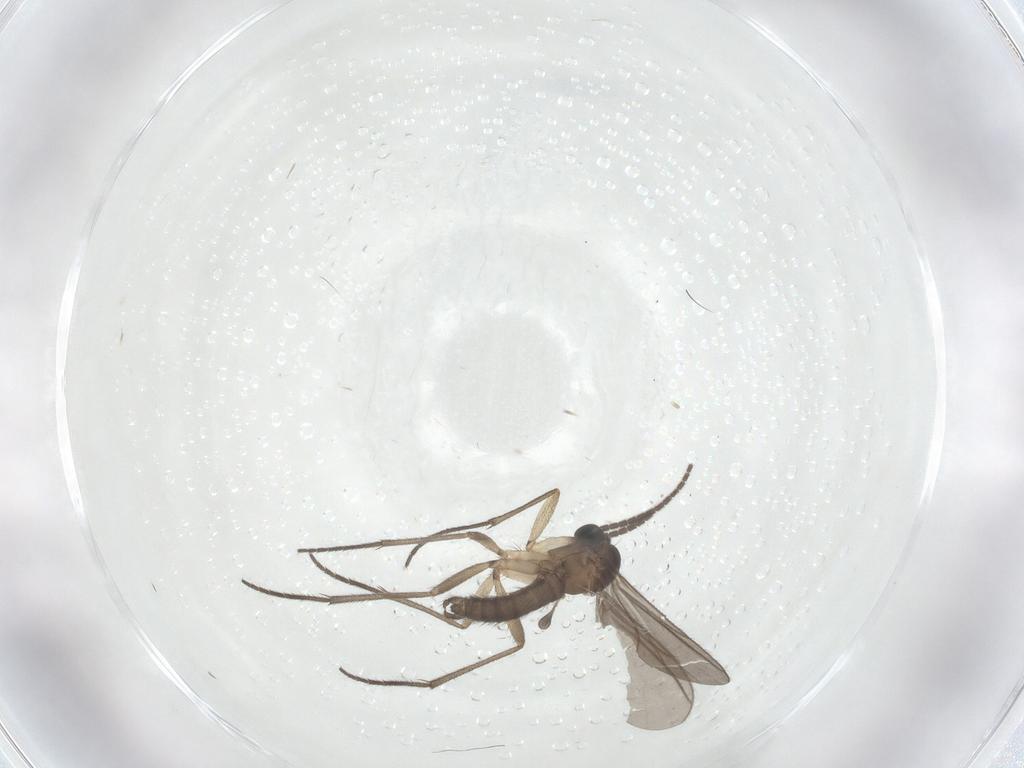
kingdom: Animalia
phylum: Arthropoda
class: Insecta
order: Diptera
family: Sciaridae
